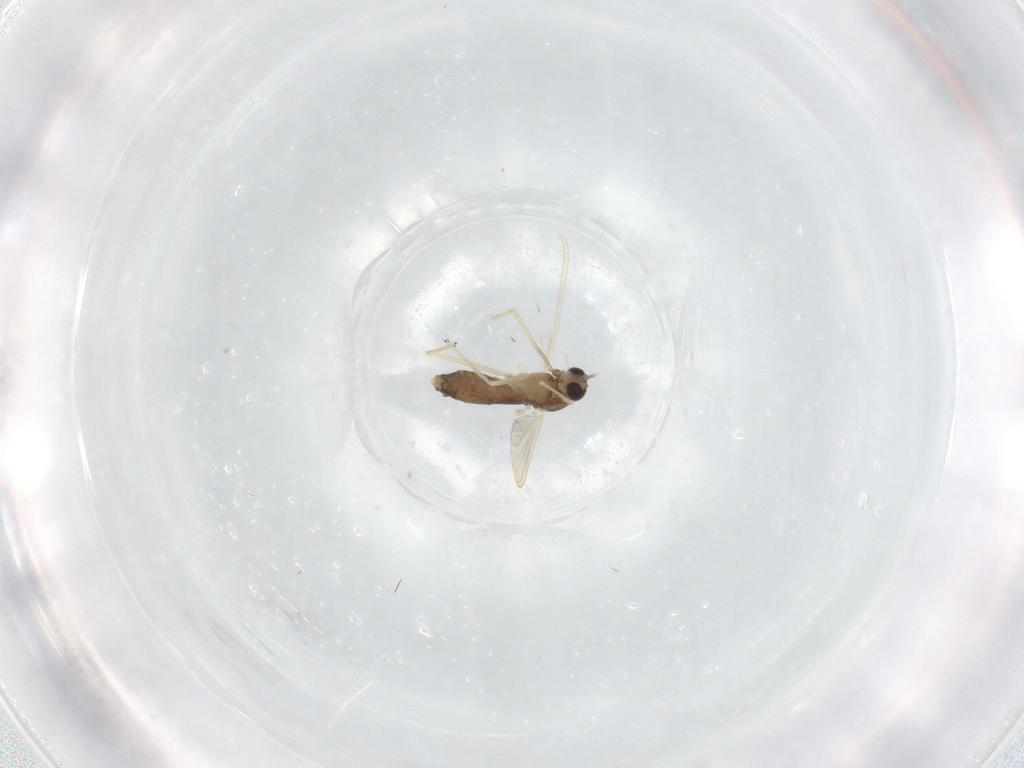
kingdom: Animalia
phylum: Arthropoda
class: Insecta
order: Diptera
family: Chironomidae
